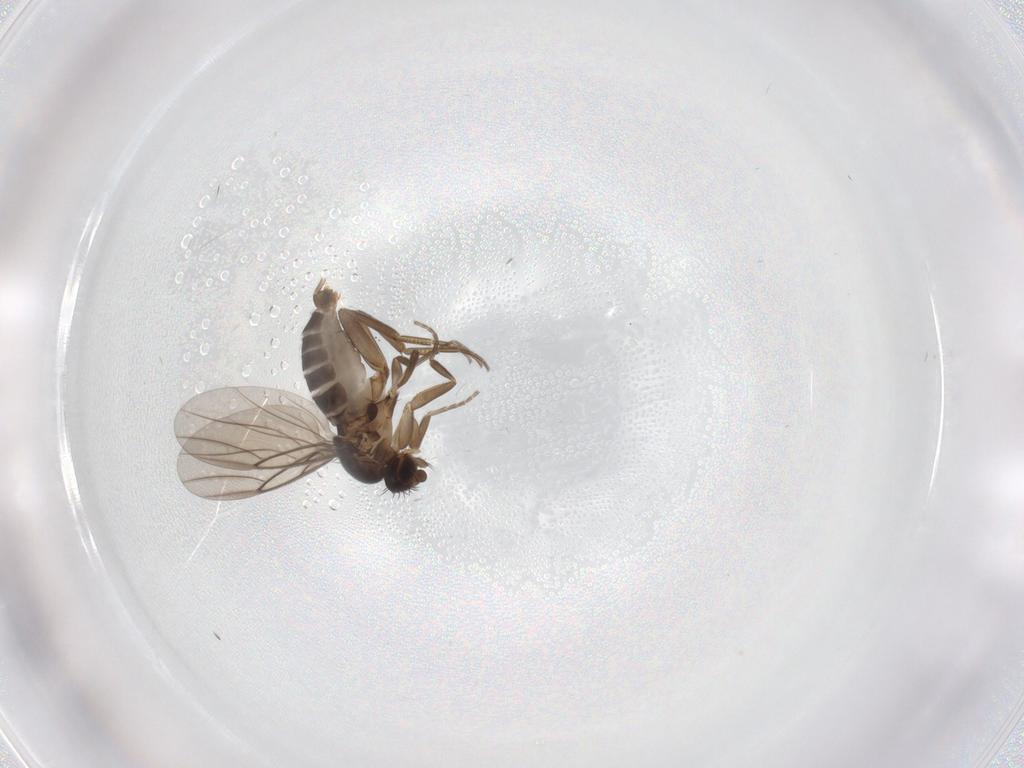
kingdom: Animalia
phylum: Arthropoda
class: Insecta
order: Diptera
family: Phoridae
